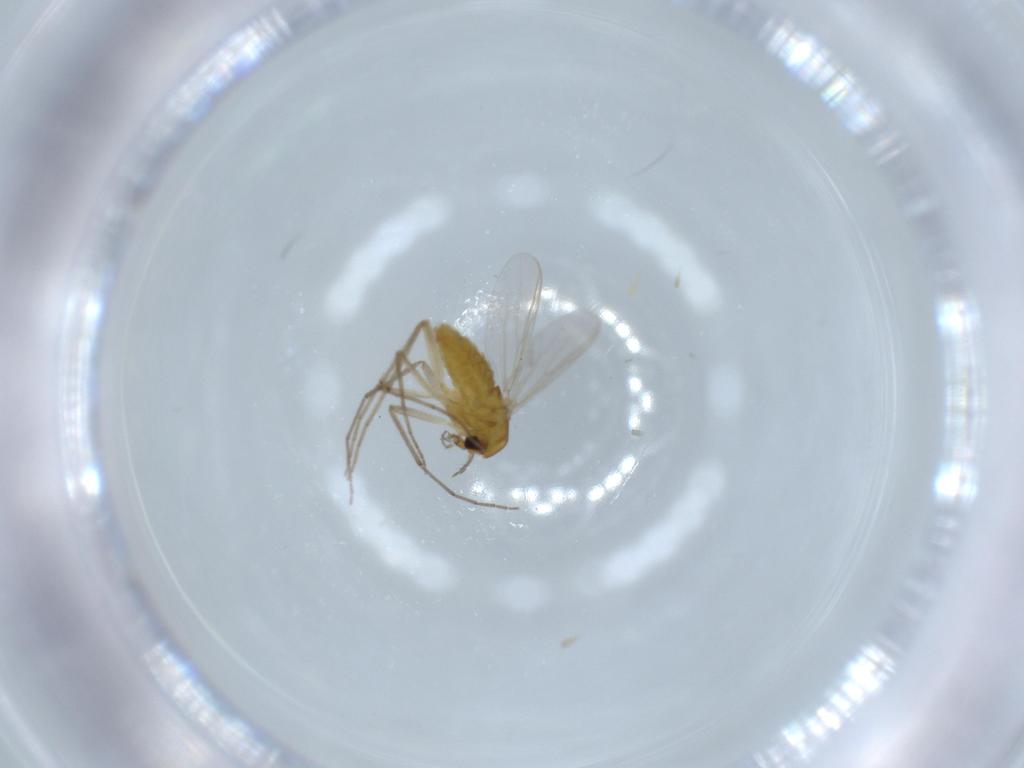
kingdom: Animalia
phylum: Arthropoda
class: Insecta
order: Diptera
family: Chironomidae
